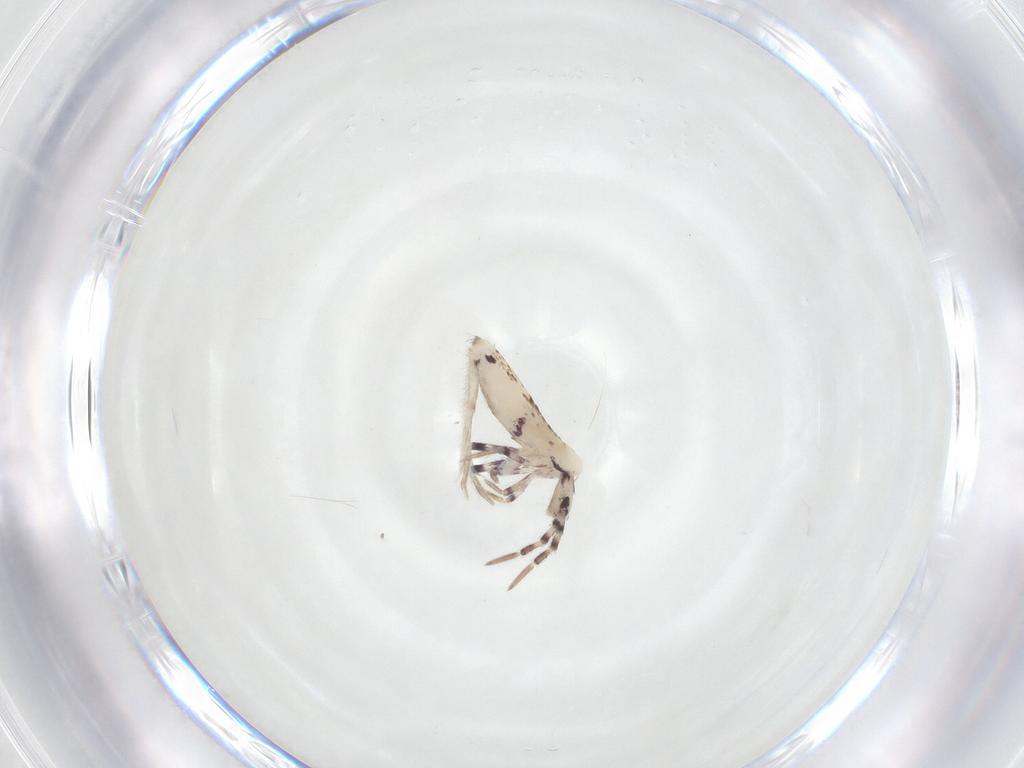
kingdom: Animalia
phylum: Arthropoda
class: Collembola
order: Entomobryomorpha
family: Entomobryidae
